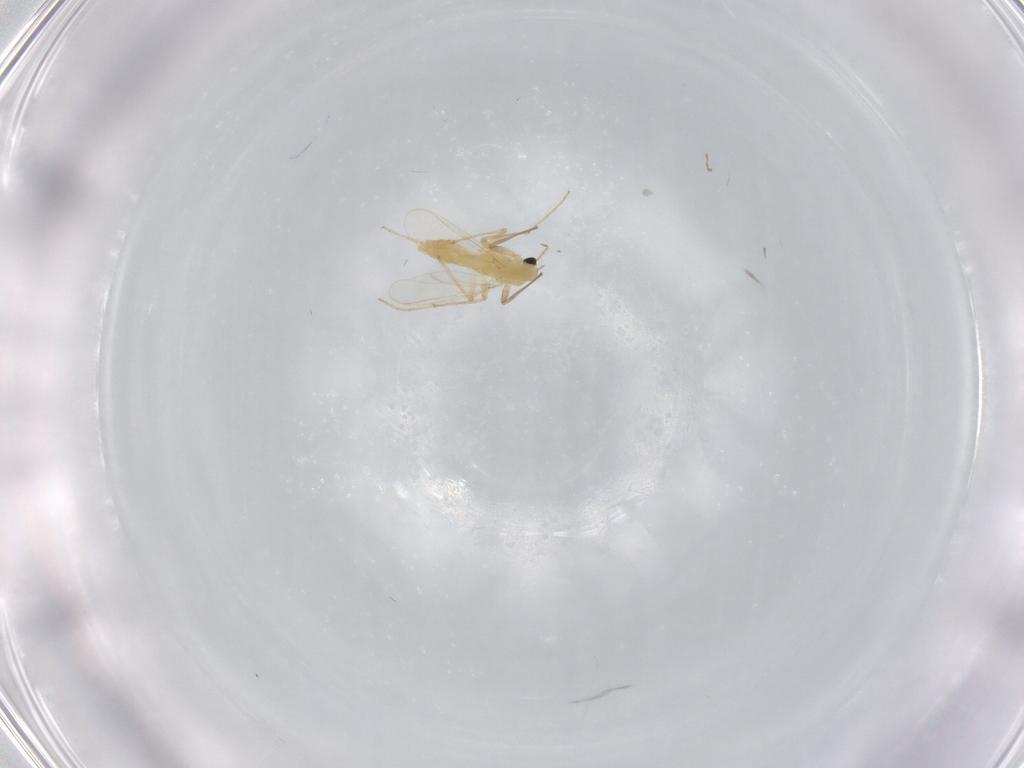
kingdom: Animalia
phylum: Arthropoda
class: Insecta
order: Diptera
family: Chironomidae
